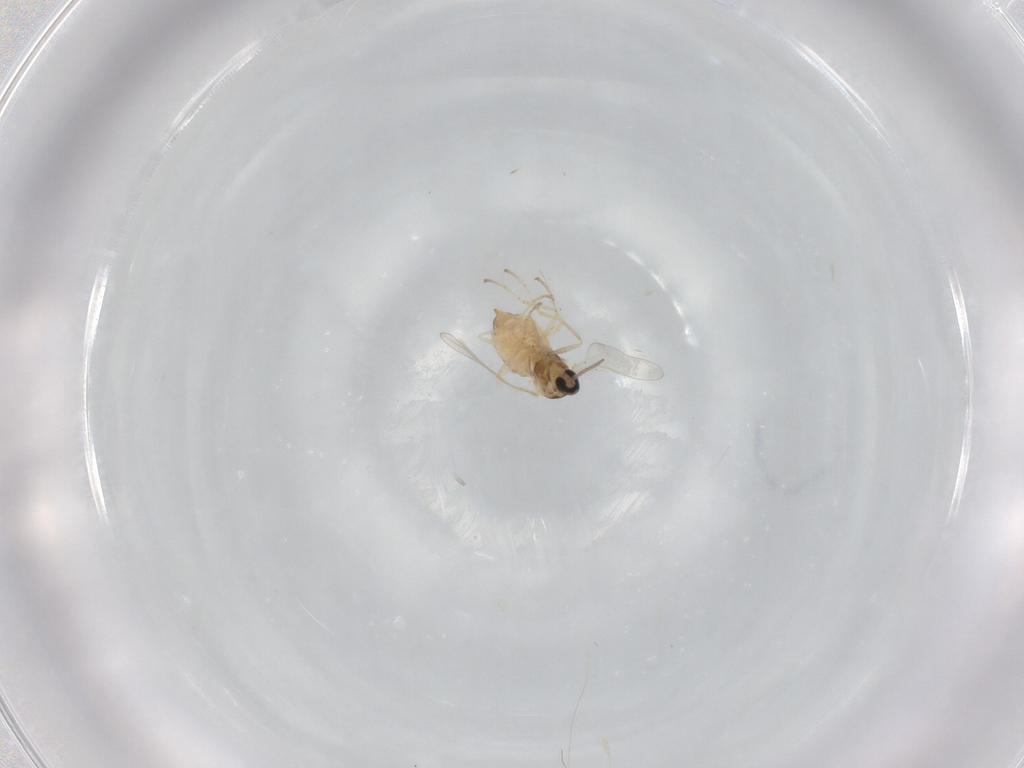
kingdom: Animalia
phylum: Arthropoda
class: Insecta
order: Diptera
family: Cecidomyiidae
